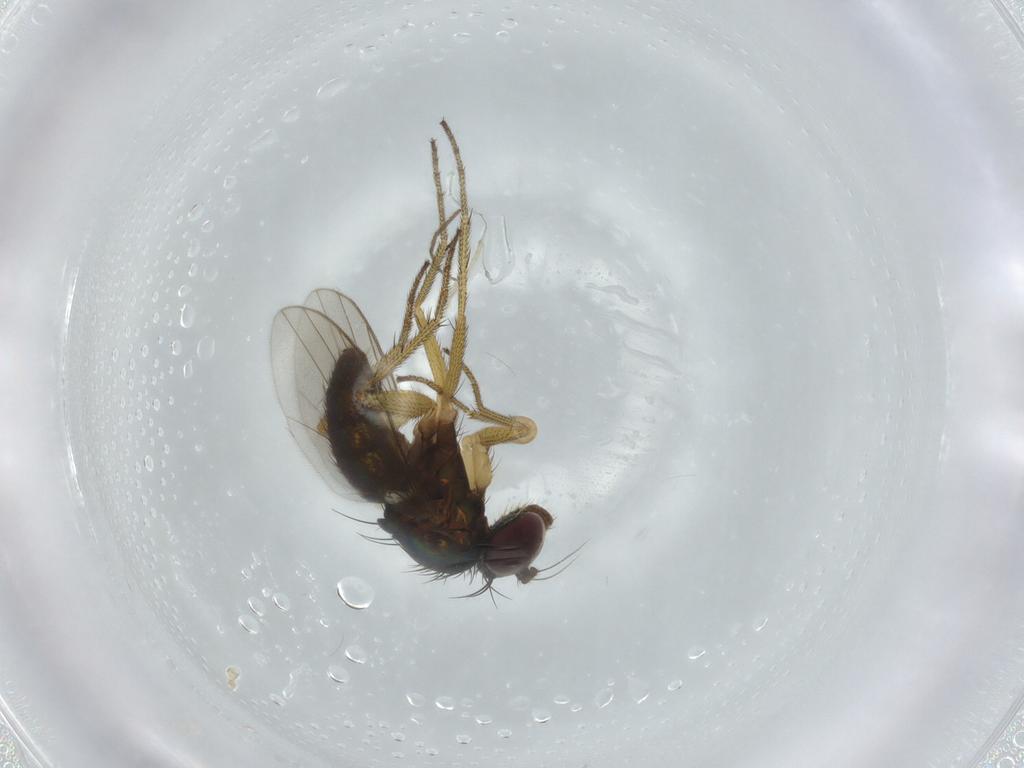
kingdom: Animalia
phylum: Arthropoda
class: Insecta
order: Diptera
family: Dolichopodidae
